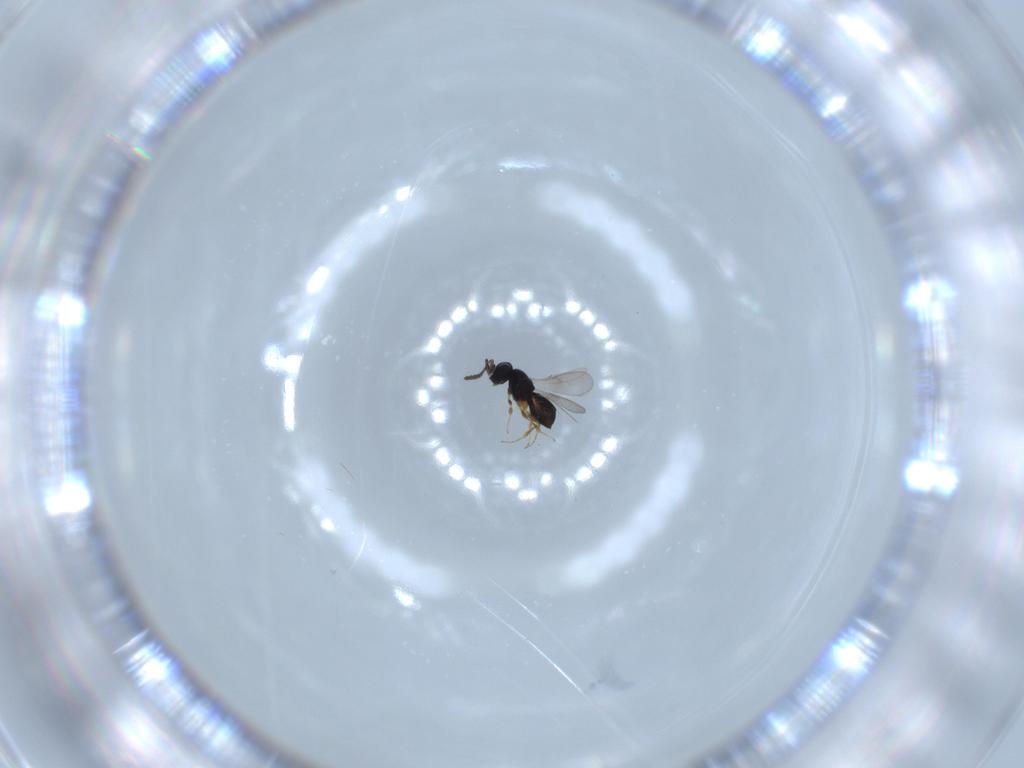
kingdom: Animalia
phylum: Arthropoda
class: Insecta
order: Hymenoptera
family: Scelionidae
